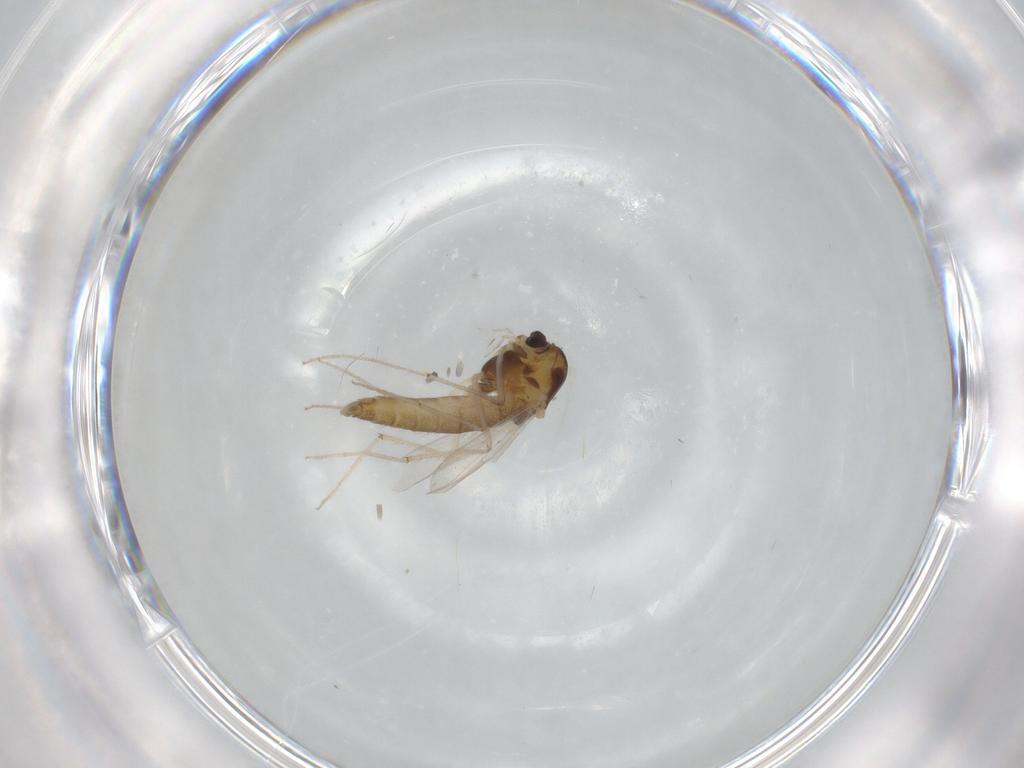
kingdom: Animalia
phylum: Arthropoda
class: Insecta
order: Diptera
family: Chironomidae
